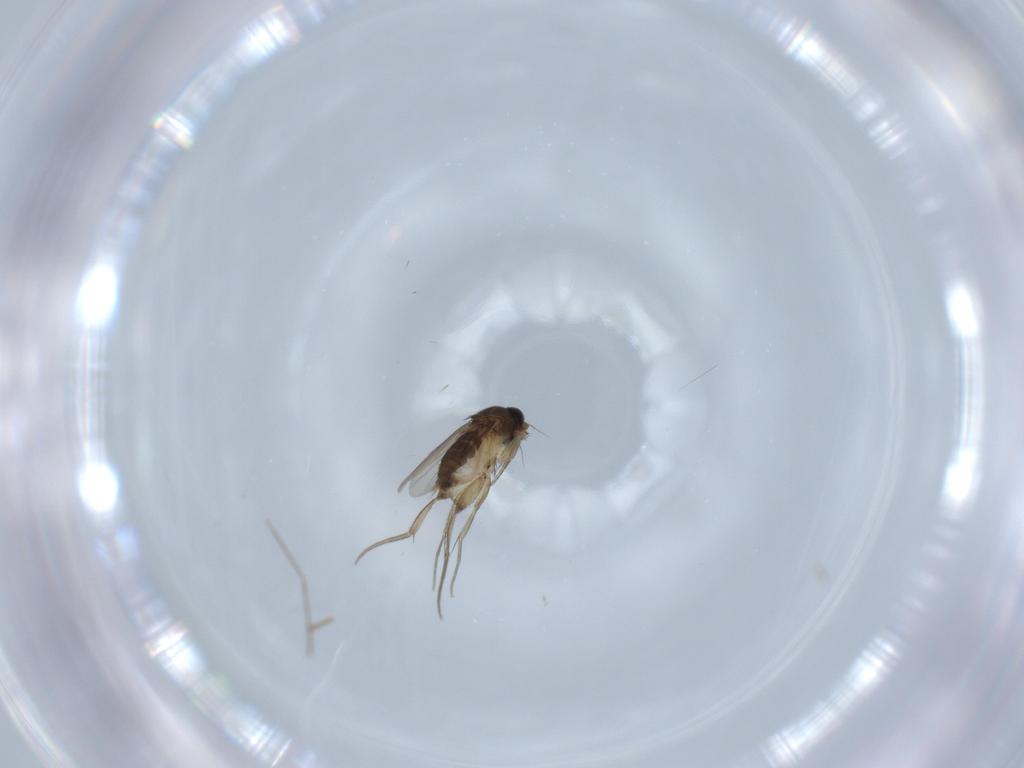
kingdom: Animalia
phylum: Arthropoda
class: Insecta
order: Diptera
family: Phoridae
